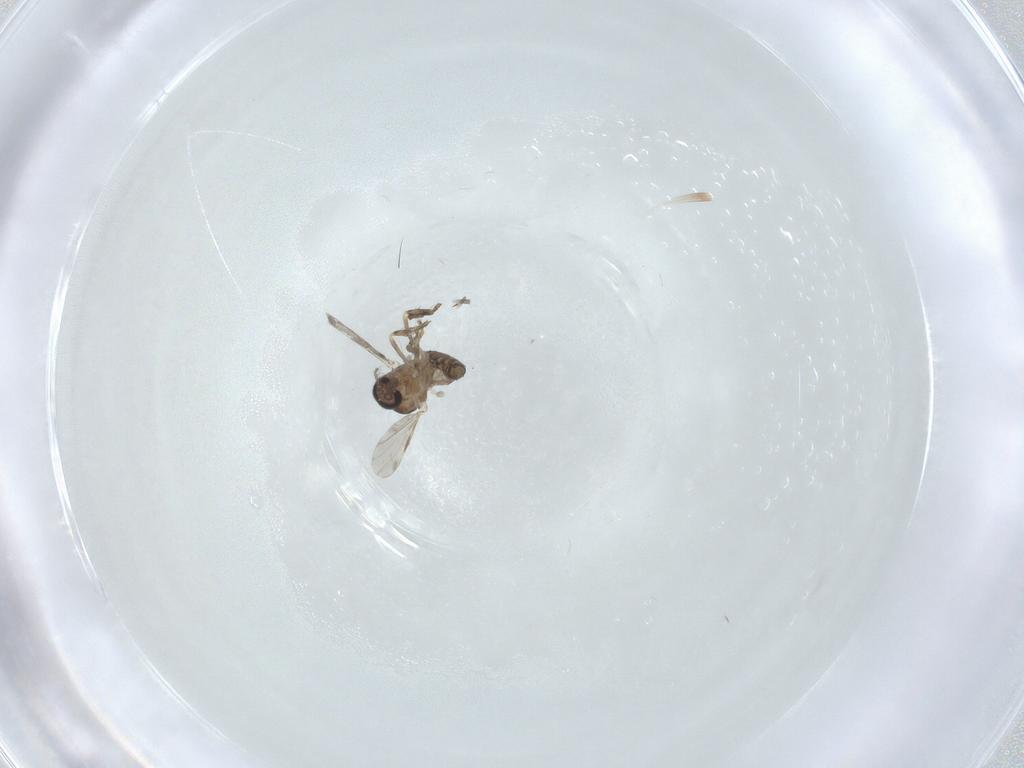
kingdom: Animalia
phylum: Arthropoda
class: Insecta
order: Diptera
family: Ceratopogonidae
